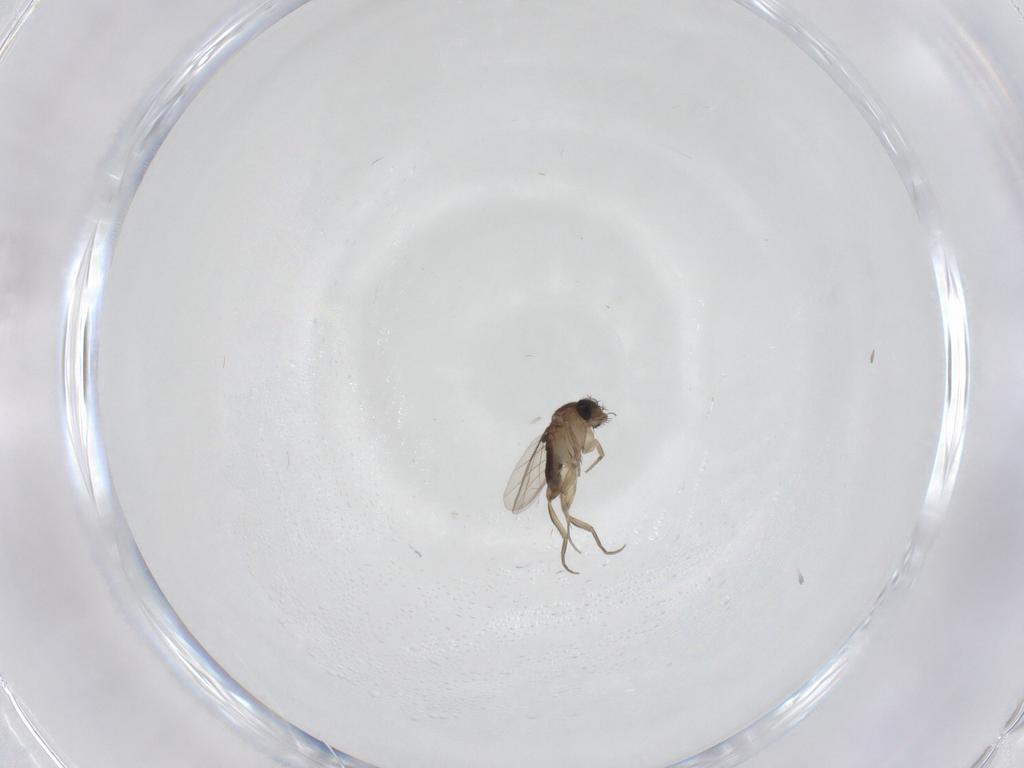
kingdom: Animalia
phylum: Arthropoda
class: Insecta
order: Diptera
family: Phoridae
